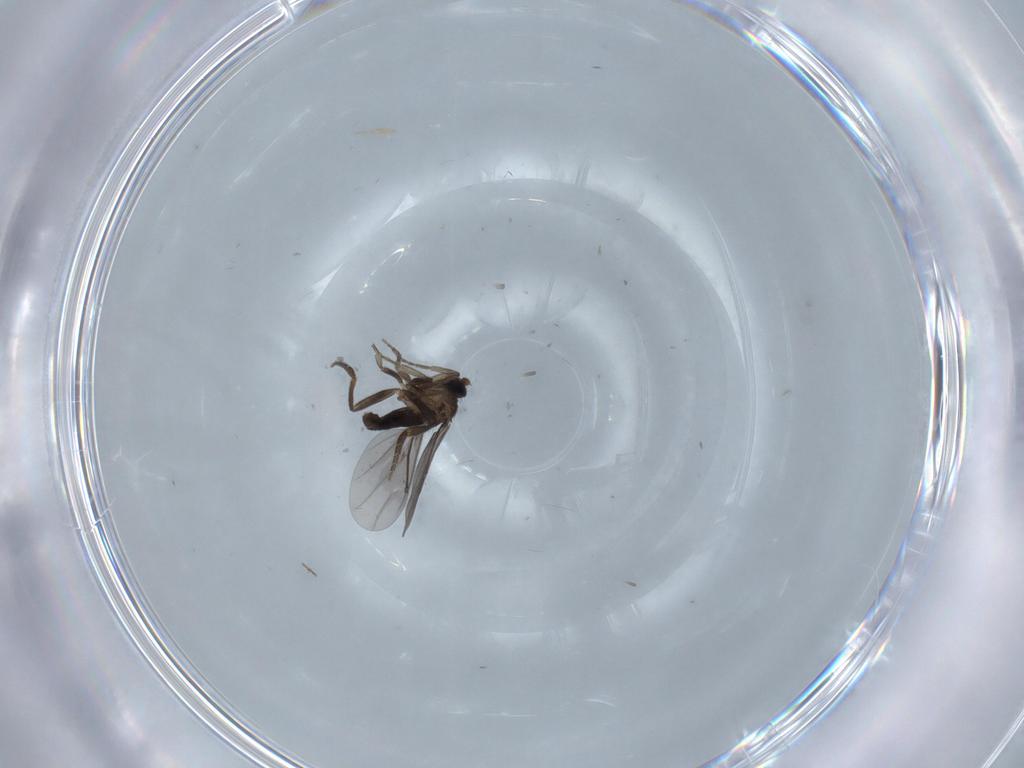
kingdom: Animalia
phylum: Arthropoda
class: Insecta
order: Diptera
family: Chironomidae
